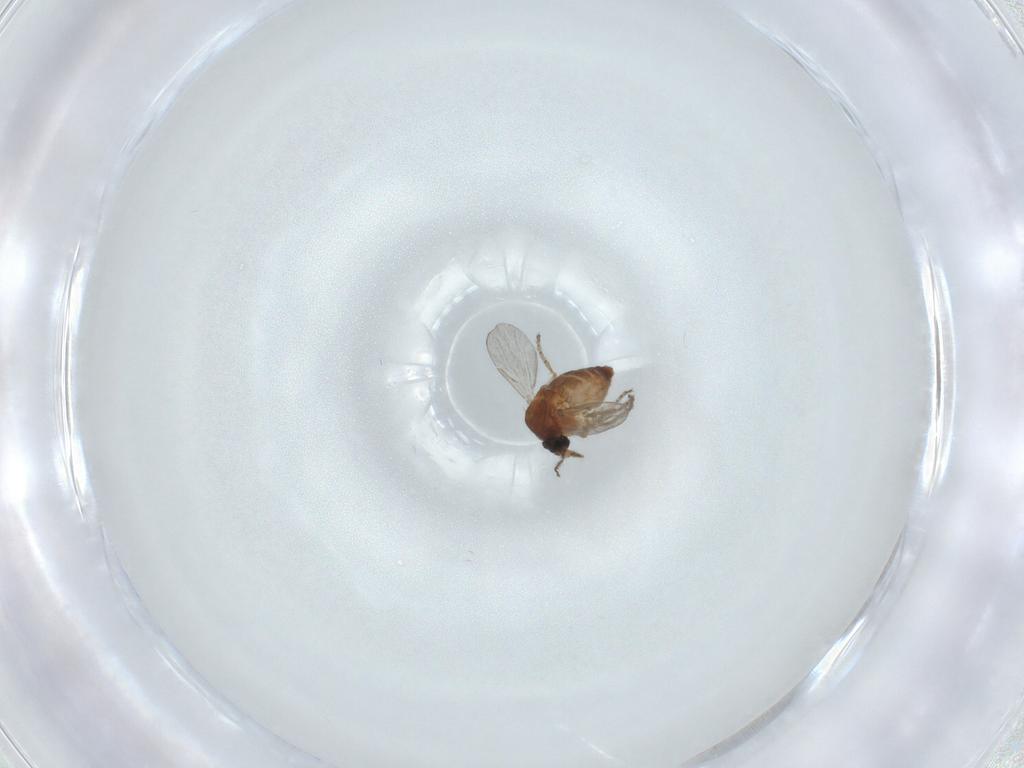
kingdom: Animalia
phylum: Arthropoda
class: Insecta
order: Diptera
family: Ceratopogonidae
